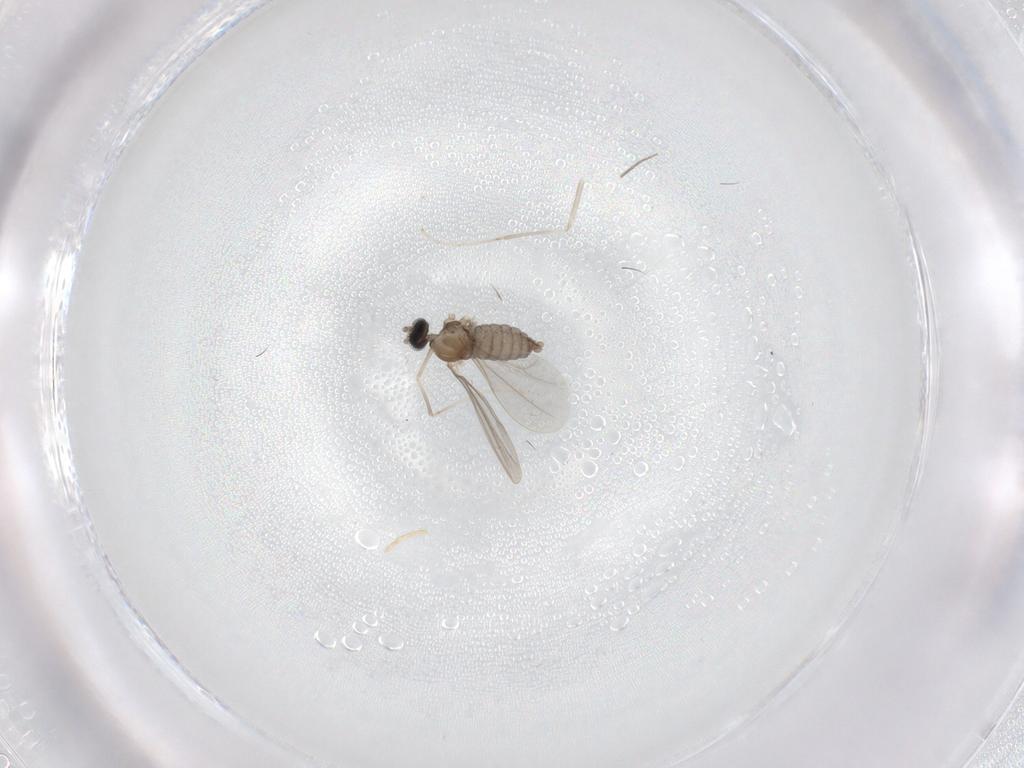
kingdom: Animalia
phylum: Arthropoda
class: Insecta
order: Diptera
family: Cecidomyiidae
